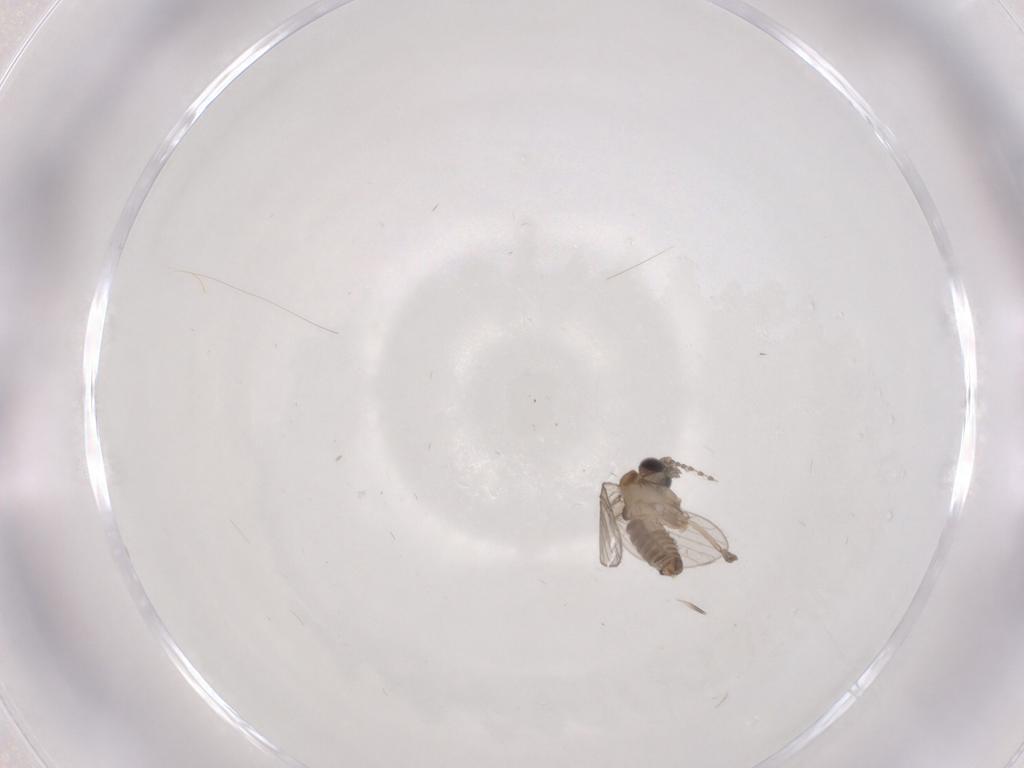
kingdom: Animalia
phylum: Arthropoda
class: Insecta
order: Diptera
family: Psychodidae
